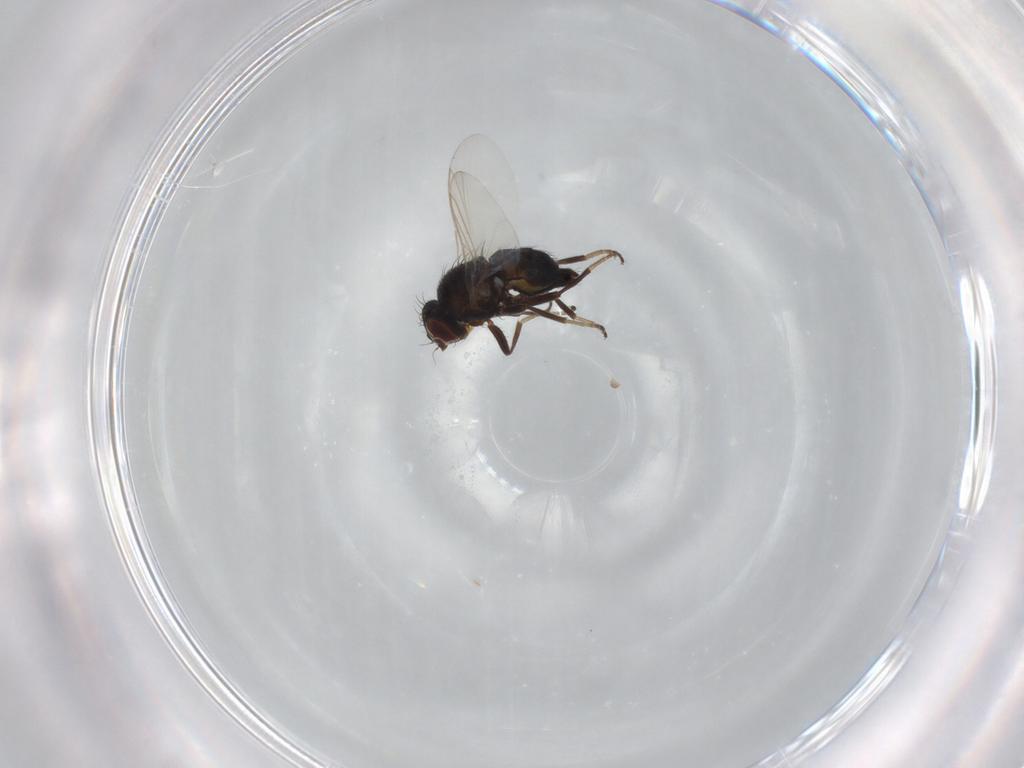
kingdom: Animalia
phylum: Arthropoda
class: Insecta
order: Diptera
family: Agromyzidae
